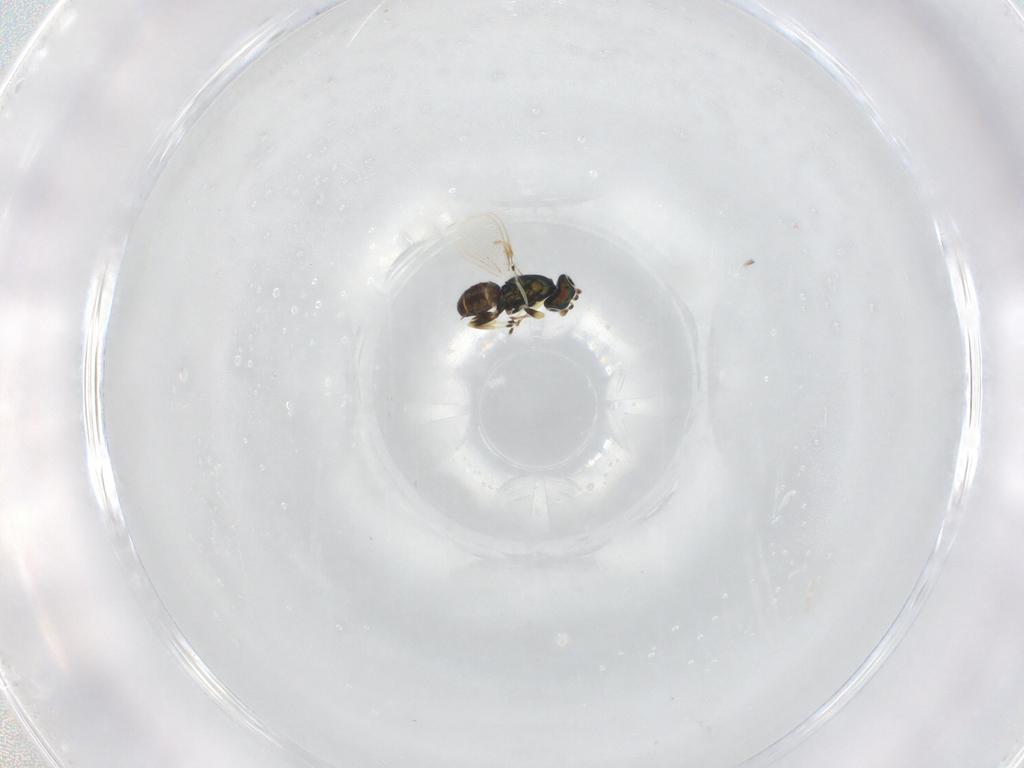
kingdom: Animalia
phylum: Arthropoda
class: Insecta
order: Hymenoptera
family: Eulophidae
